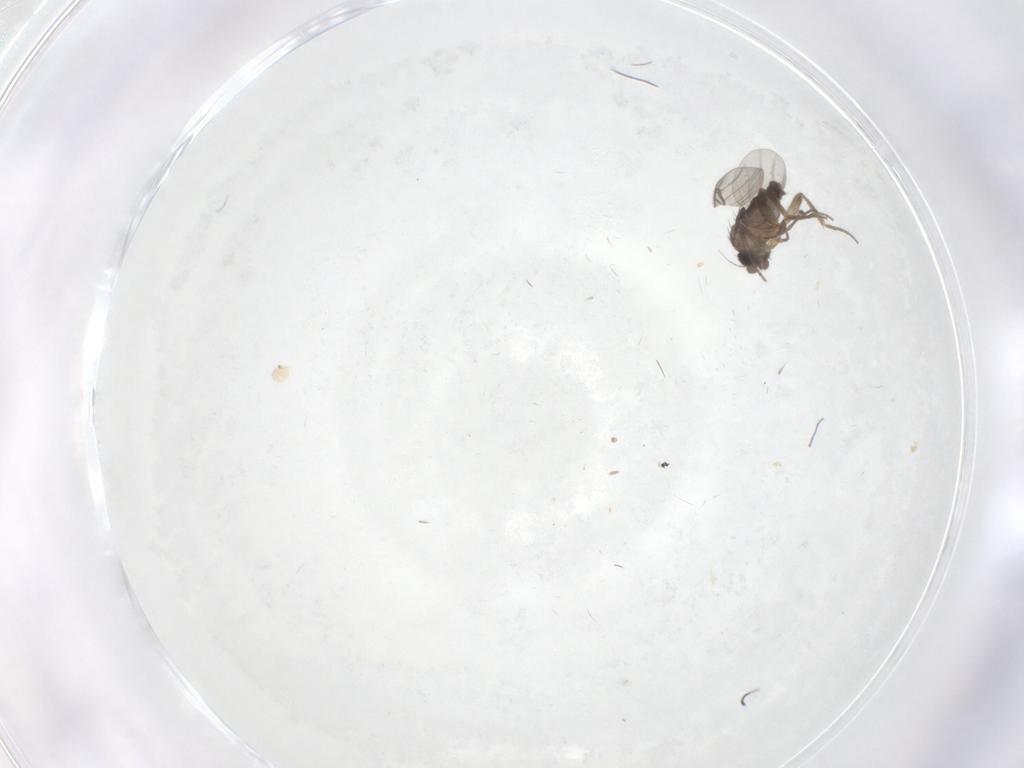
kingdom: Animalia
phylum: Arthropoda
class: Insecta
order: Diptera
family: Phoridae
